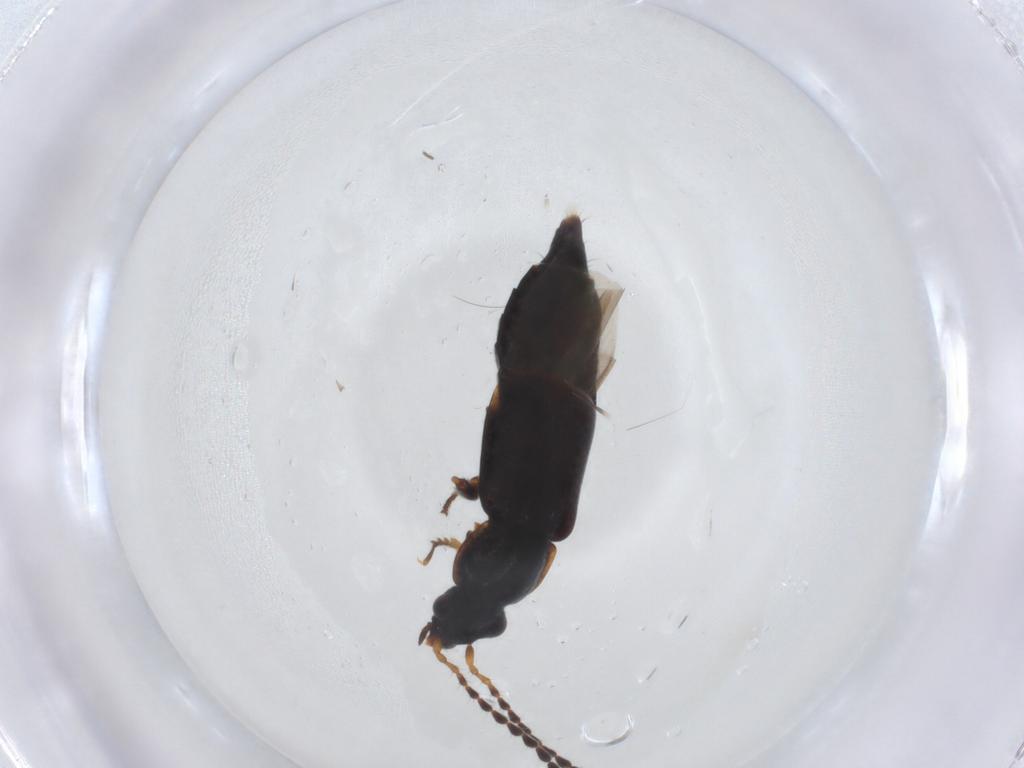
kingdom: Animalia
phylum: Arthropoda
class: Insecta
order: Coleoptera
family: Staphylinidae
